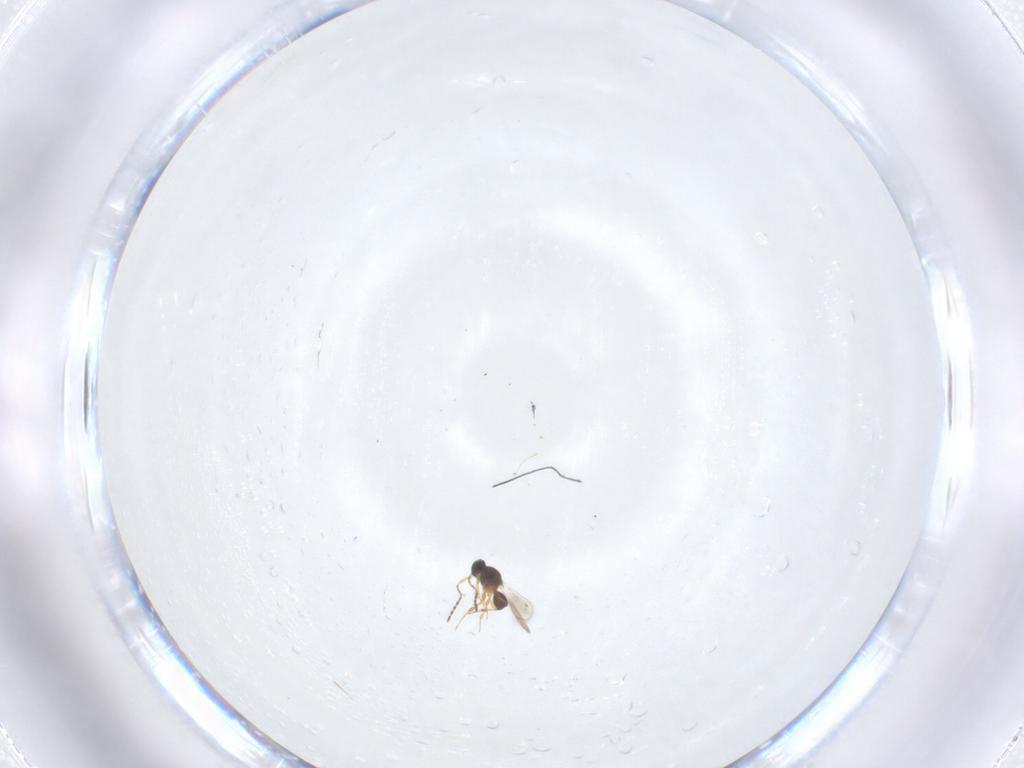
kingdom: Animalia
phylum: Arthropoda
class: Insecta
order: Hymenoptera
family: Platygastridae
